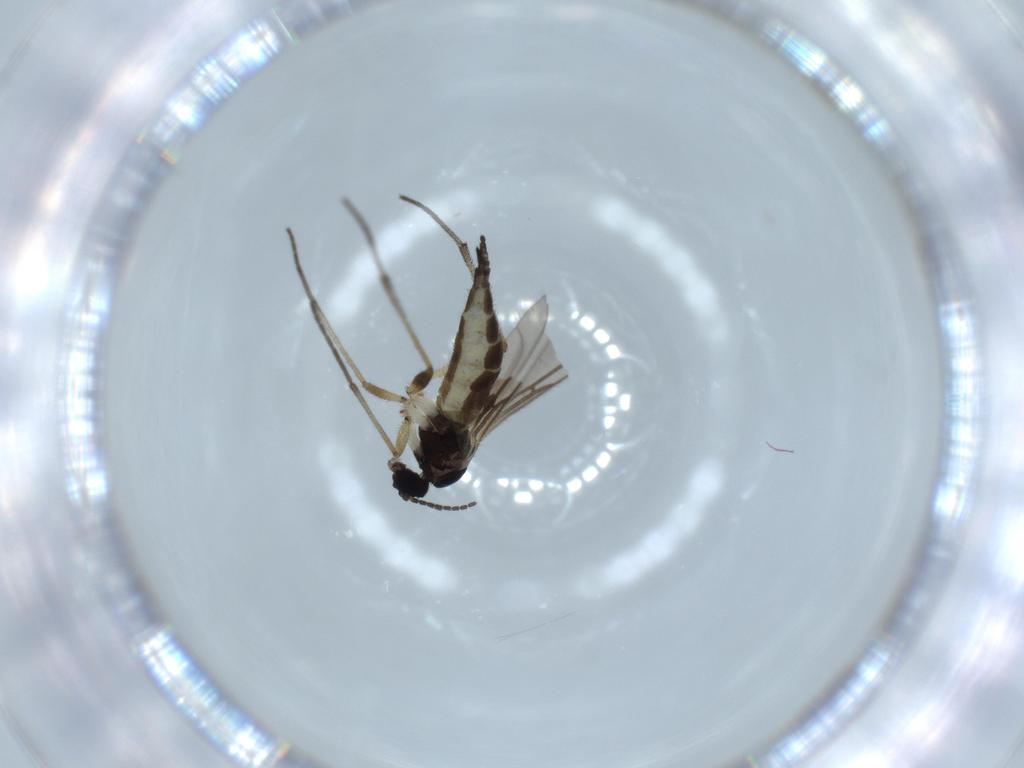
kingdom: Animalia
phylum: Arthropoda
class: Insecta
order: Diptera
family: Sciaridae
